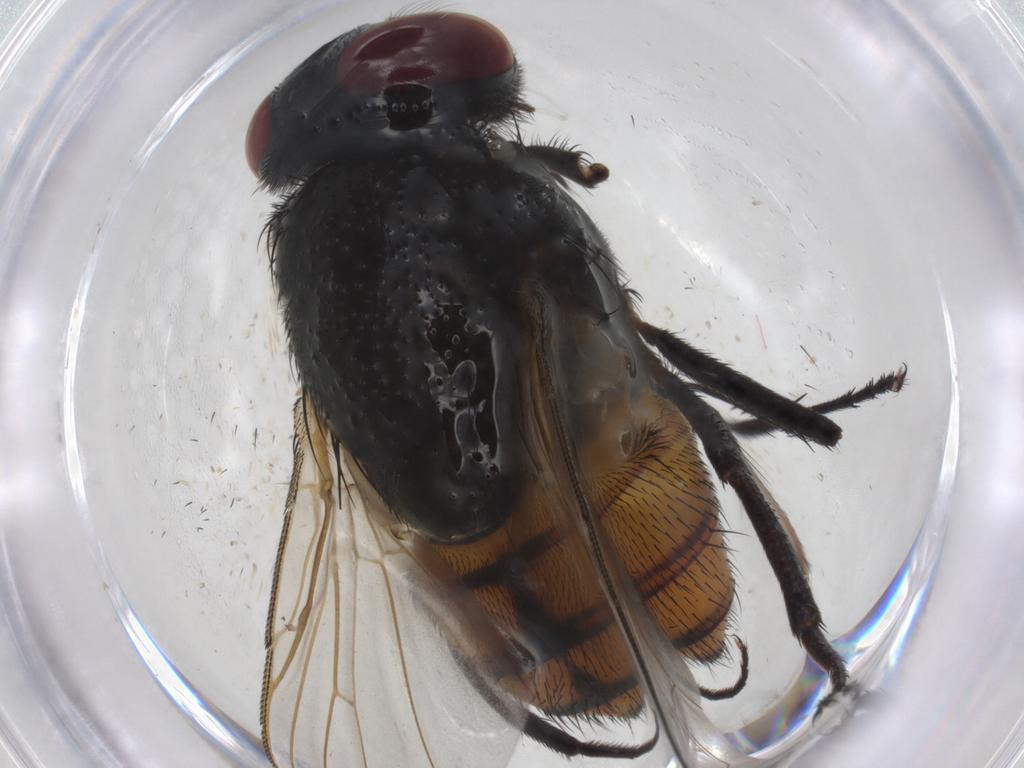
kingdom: Animalia
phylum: Arthropoda
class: Insecta
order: Diptera
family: Muscidae
